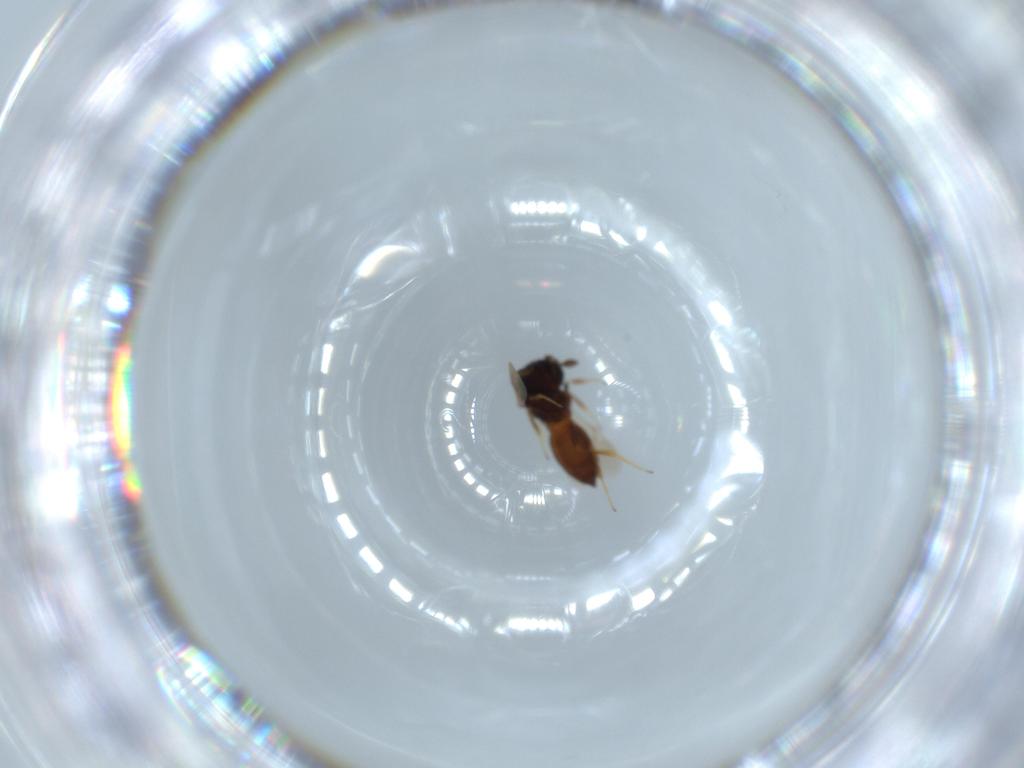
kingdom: Animalia
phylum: Arthropoda
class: Insecta
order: Hymenoptera
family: Scelionidae
